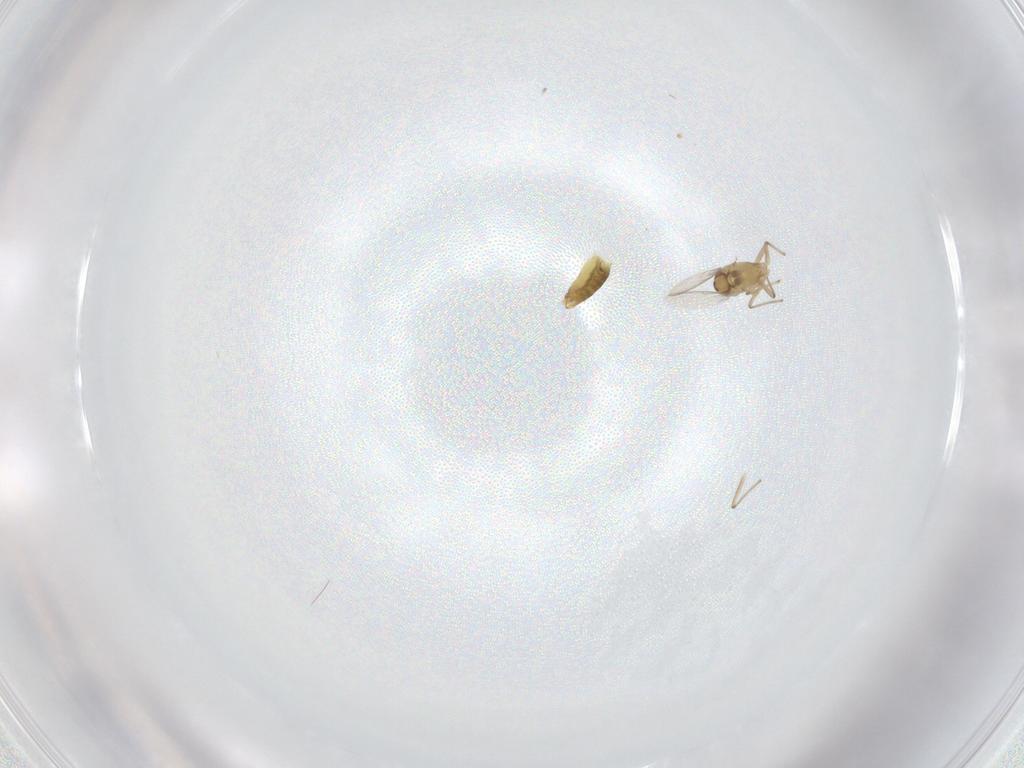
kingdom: Animalia
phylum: Arthropoda
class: Insecta
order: Diptera
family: Chironomidae
